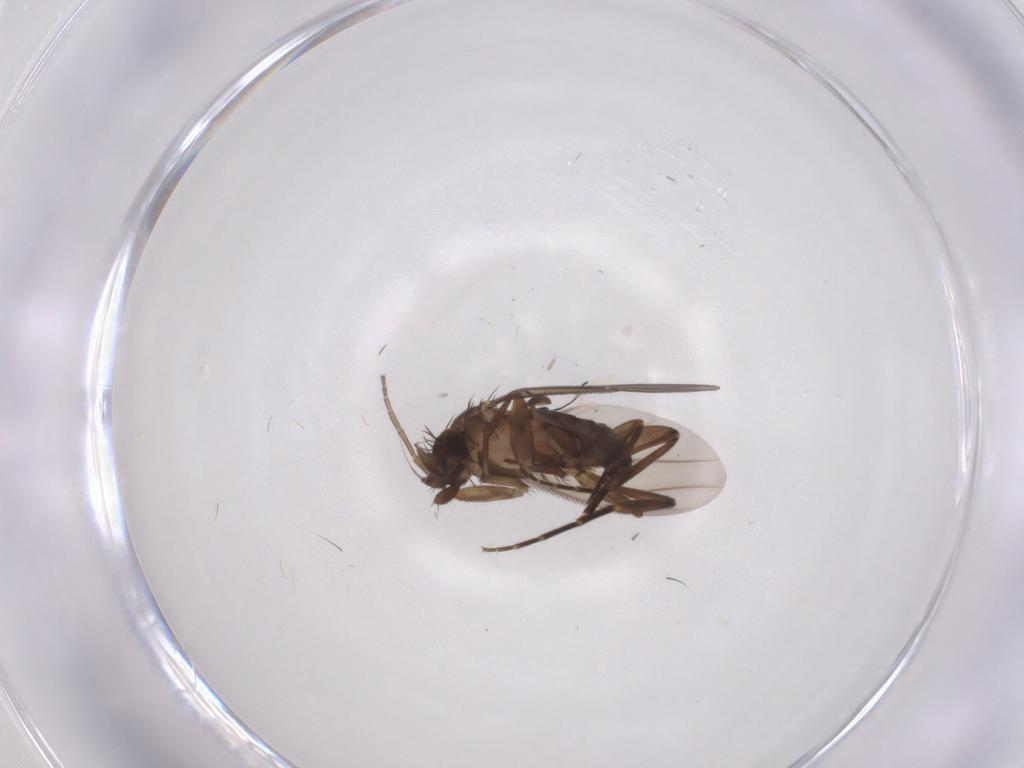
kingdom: Animalia
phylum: Arthropoda
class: Insecta
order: Diptera
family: Phoridae
